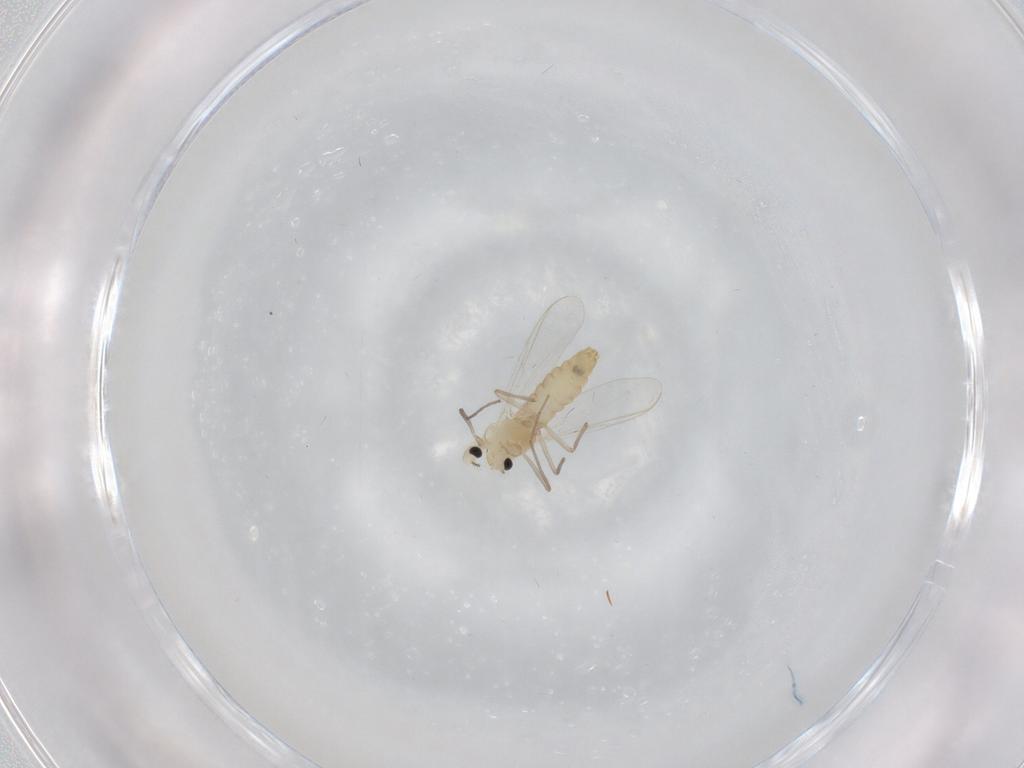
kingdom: Animalia
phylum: Arthropoda
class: Insecta
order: Diptera
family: Chironomidae
